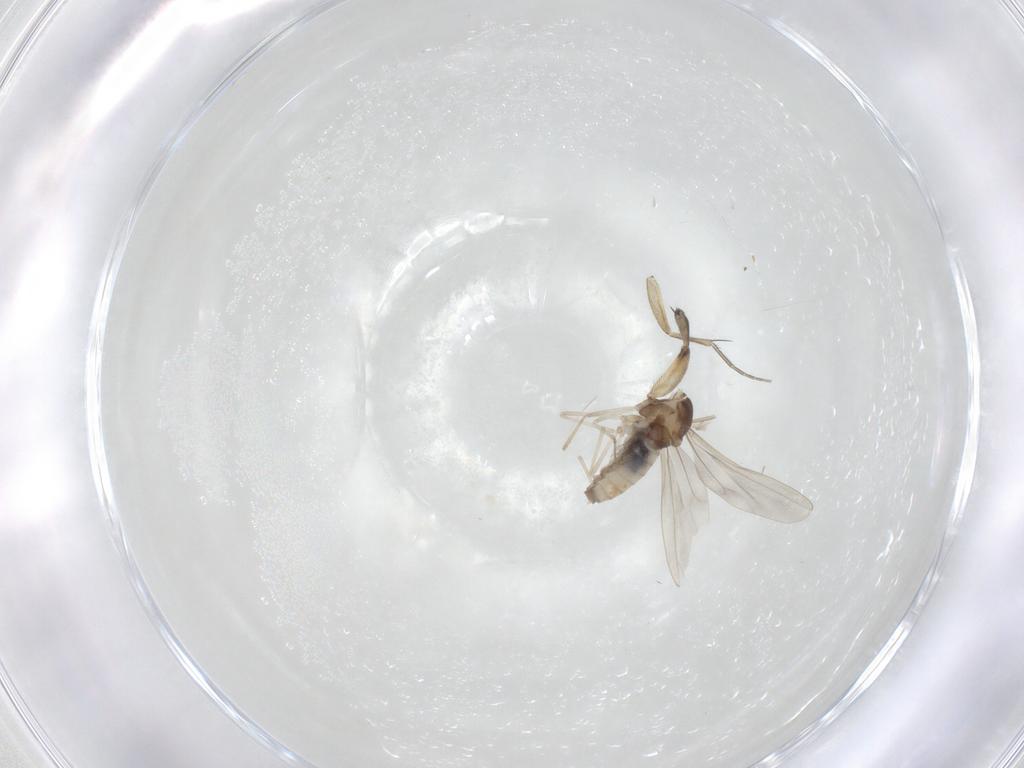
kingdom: Animalia
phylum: Arthropoda
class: Insecta
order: Diptera
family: Cecidomyiidae
